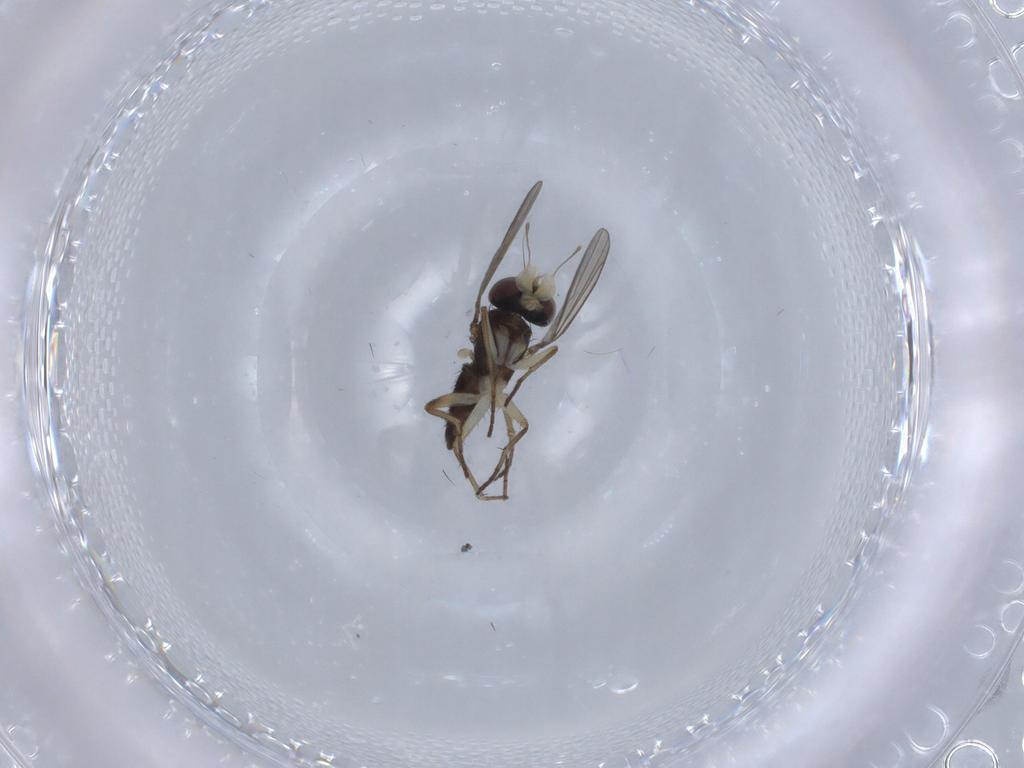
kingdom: Animalia
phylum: Arthropoda
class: Insecta
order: Diptera
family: Dolichopodidae
